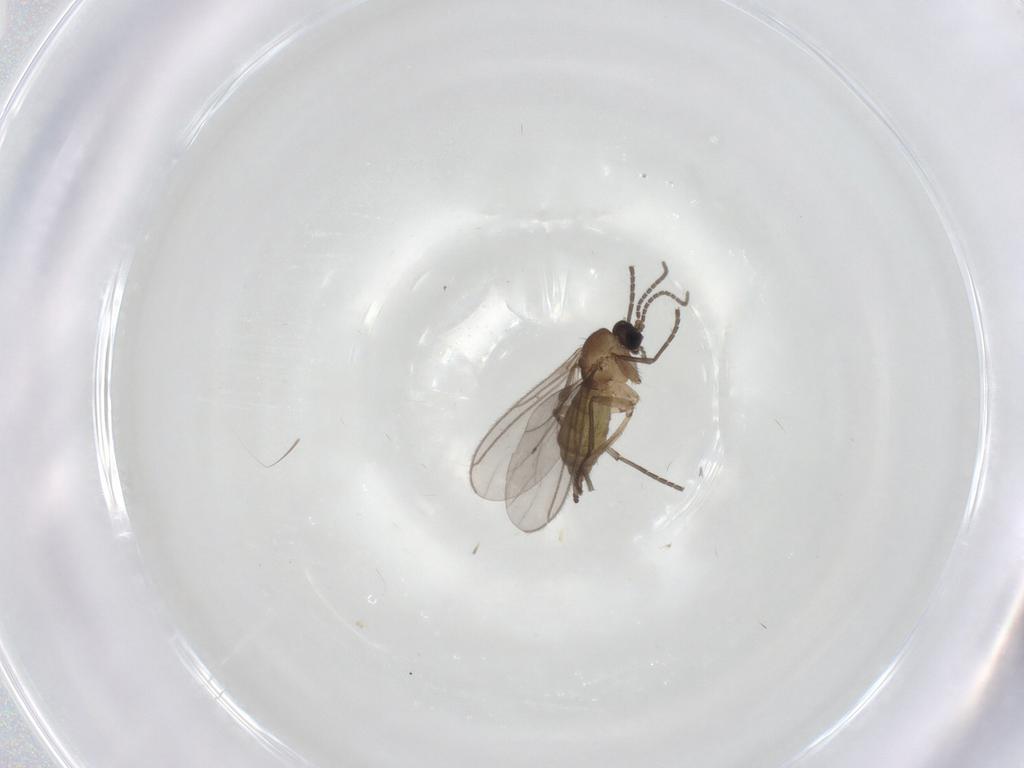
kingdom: Animalia
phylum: Arthropoda
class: Insecta
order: Diptera
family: Sciaridae
